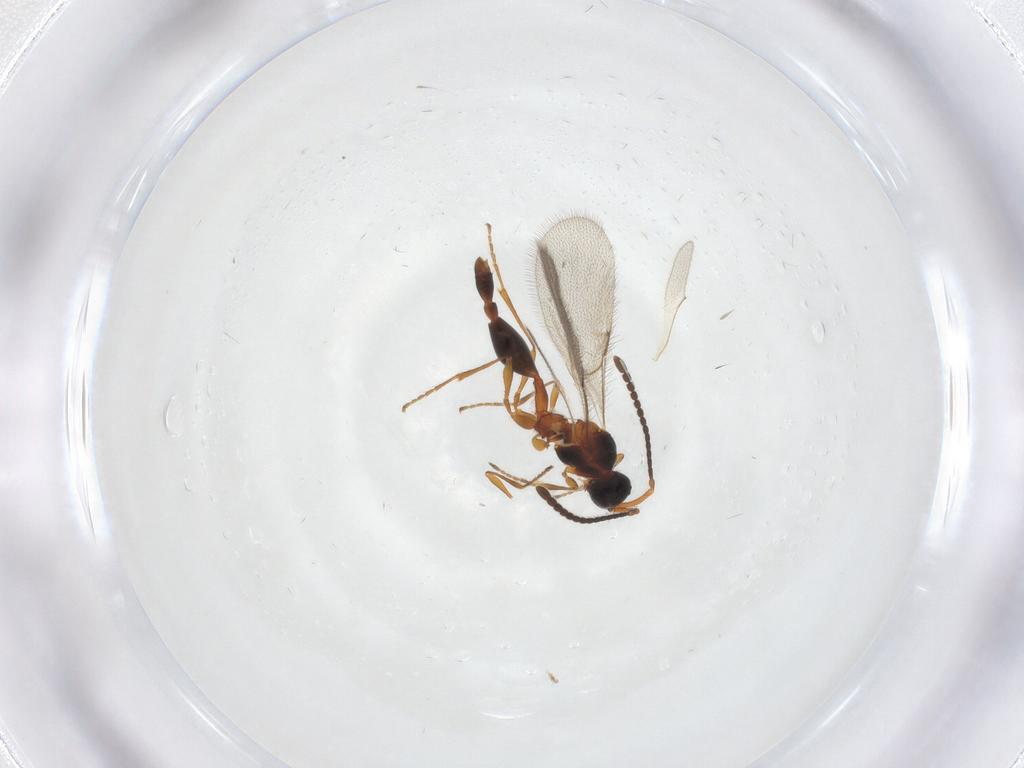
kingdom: Animalia
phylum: Arthropoda
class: Insecta
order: Hymenoptera
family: Diapriidae
